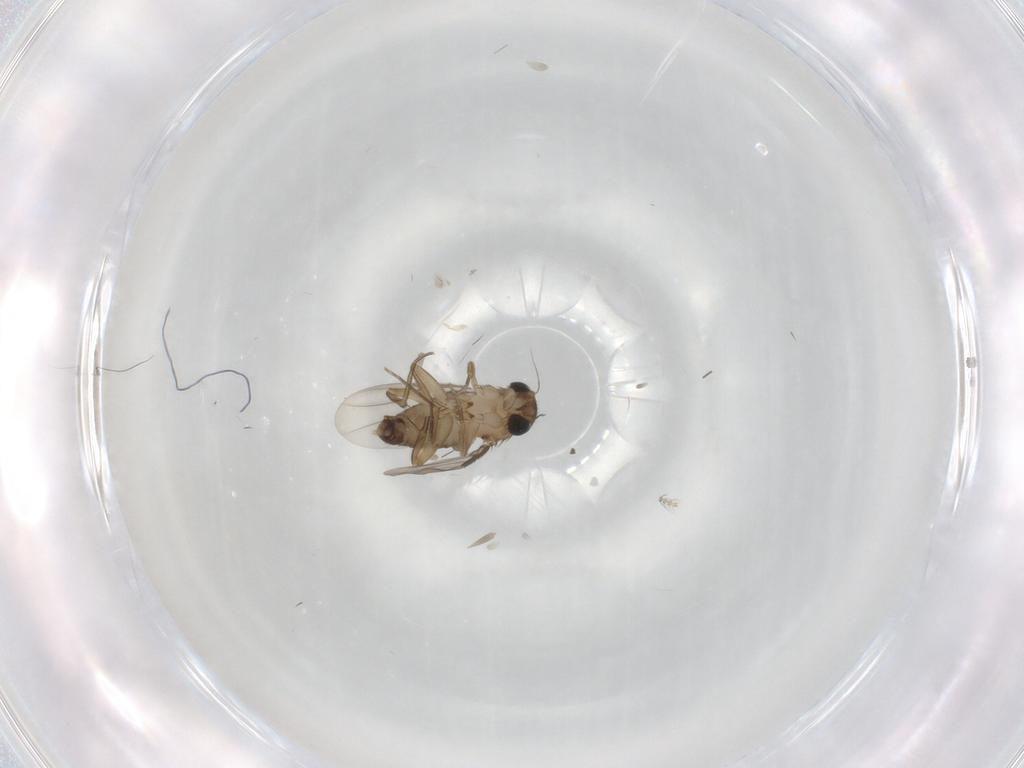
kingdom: Animalia
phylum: Arthropoda
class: Insecta
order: Diptera
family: Phoridae
